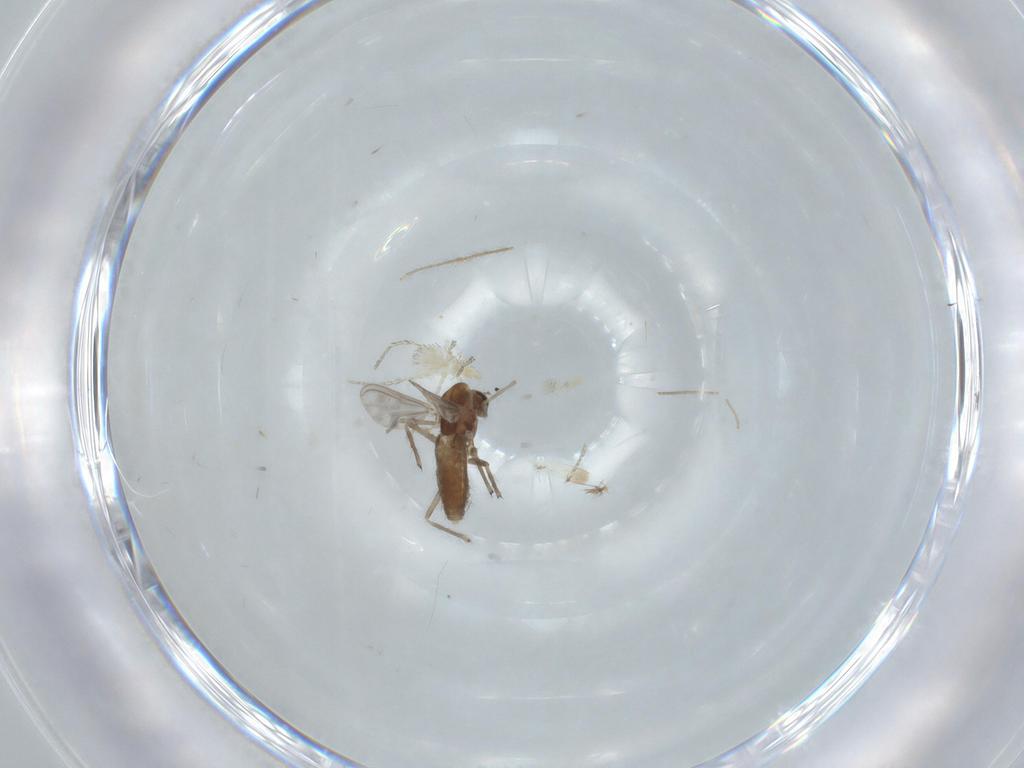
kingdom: Animalia
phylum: Arthropoda
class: Insecta
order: Diptera
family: Chironomidae
